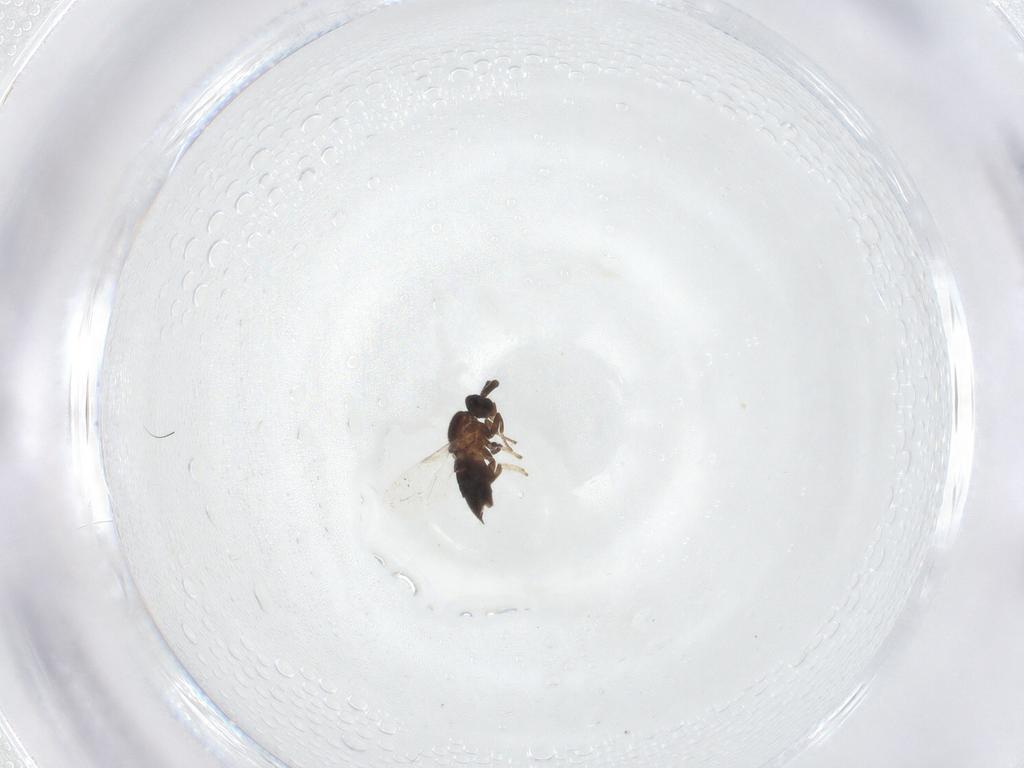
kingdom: Animalia
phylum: Arthropoda
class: Insecta
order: Diptera
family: Scatopsidae
